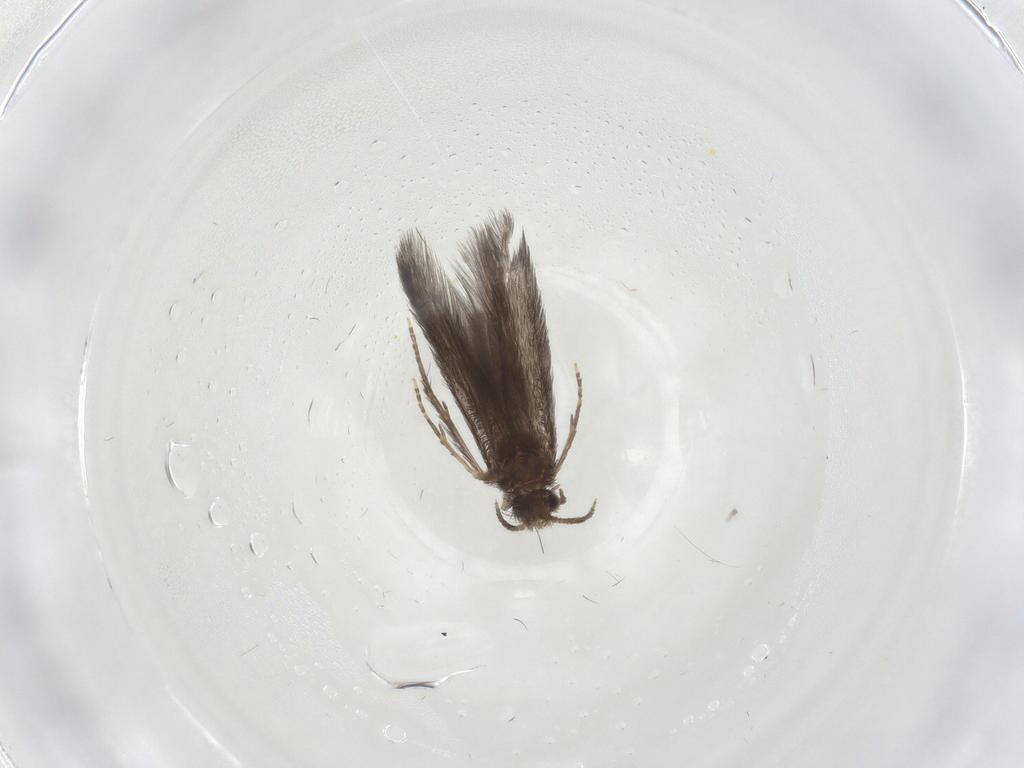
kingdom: Animalia
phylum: Arthropoda
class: Insecta
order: Trichoptera
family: Hydroptilidae
